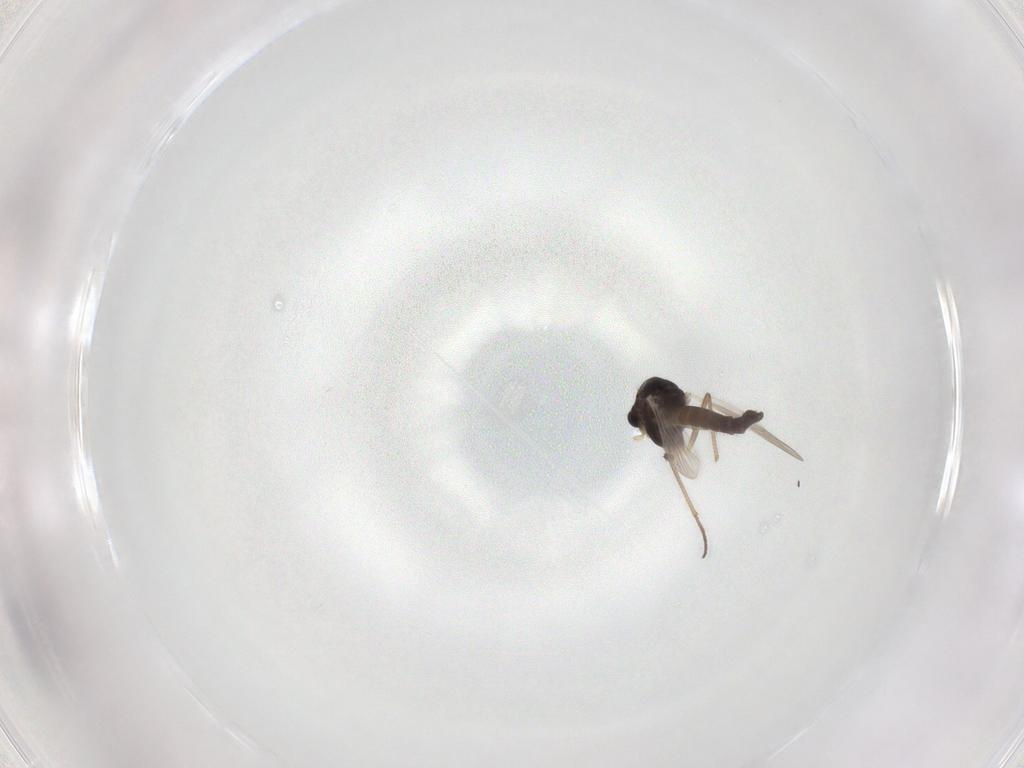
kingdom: Animalia
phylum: Arthropoda
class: Insecta
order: Diptera
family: Chironomidae
